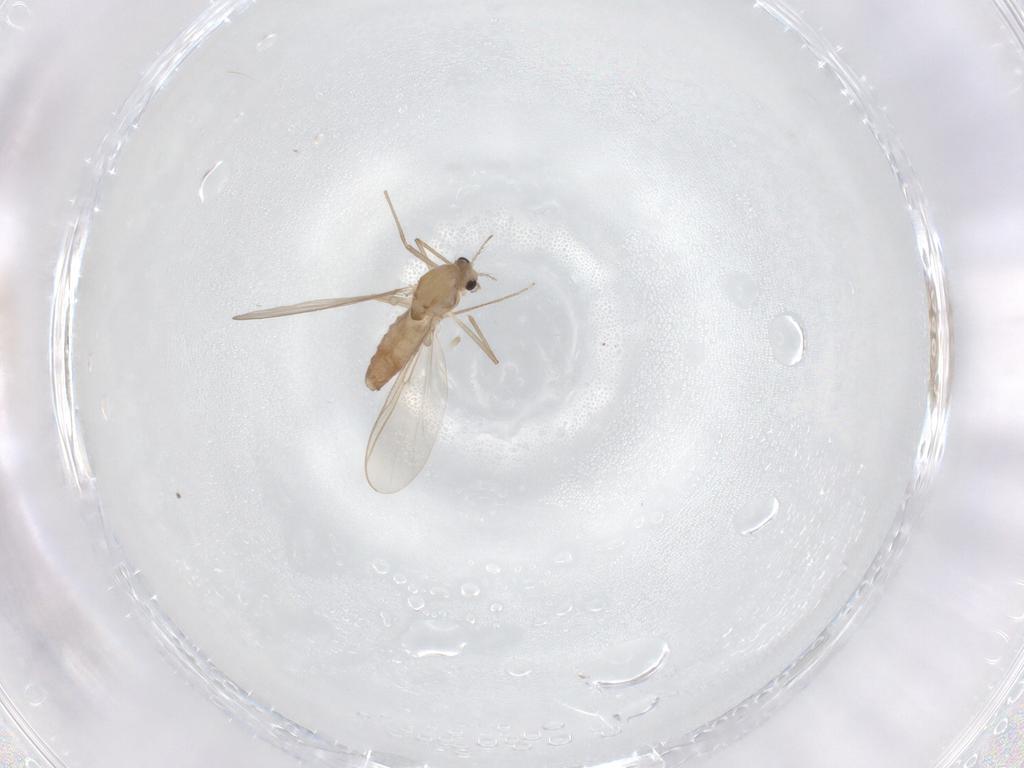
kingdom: Animalia
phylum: Arthropoda
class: Insecta
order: Diptera
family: Chironomidae
